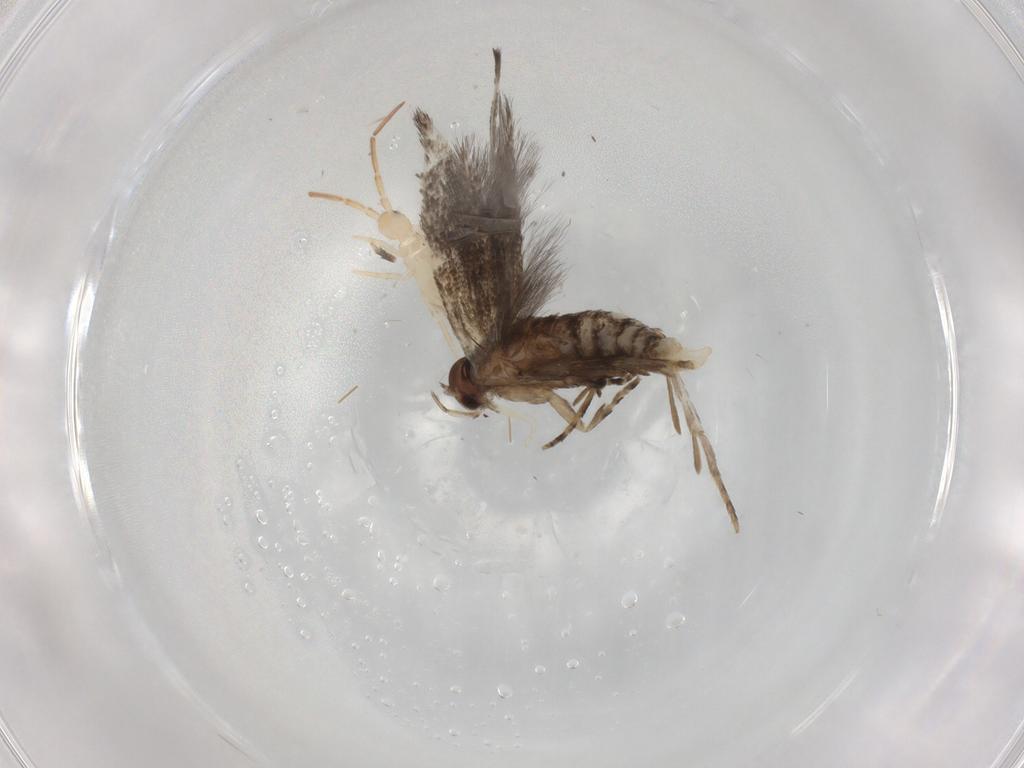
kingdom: Animalia
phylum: Arthropoda
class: Insecta
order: Lepidoptera
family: Elachistidae
